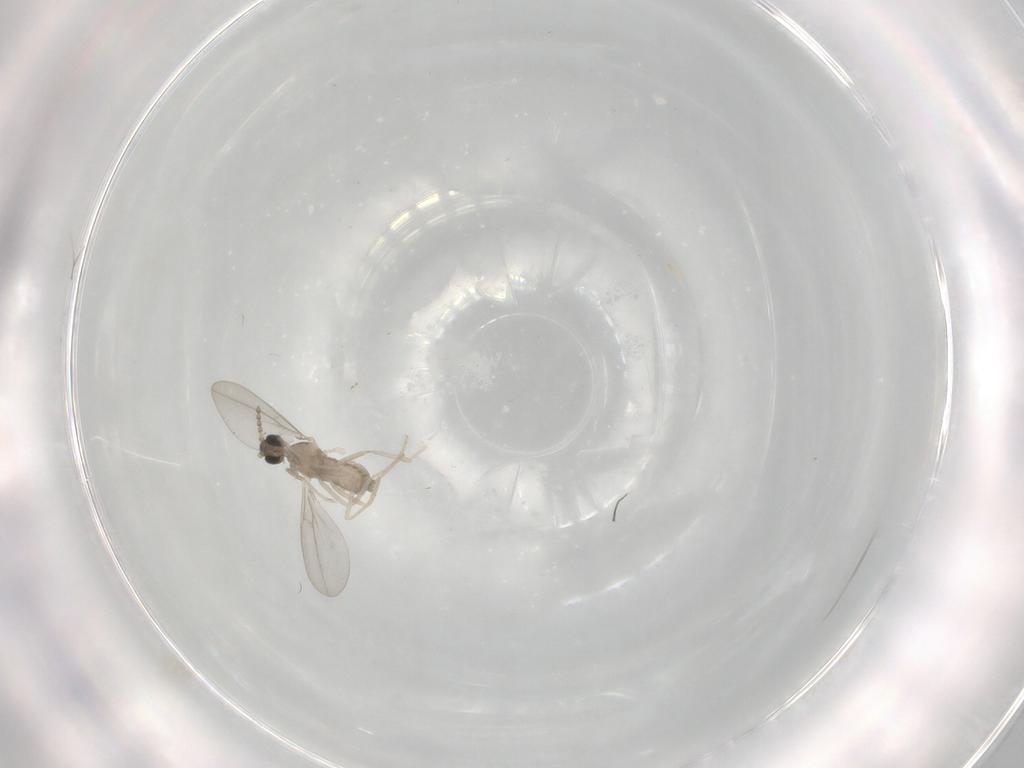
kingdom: Animalia
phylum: Arthropoda
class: Insecta
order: Diptera
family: Cecidomyiidae
